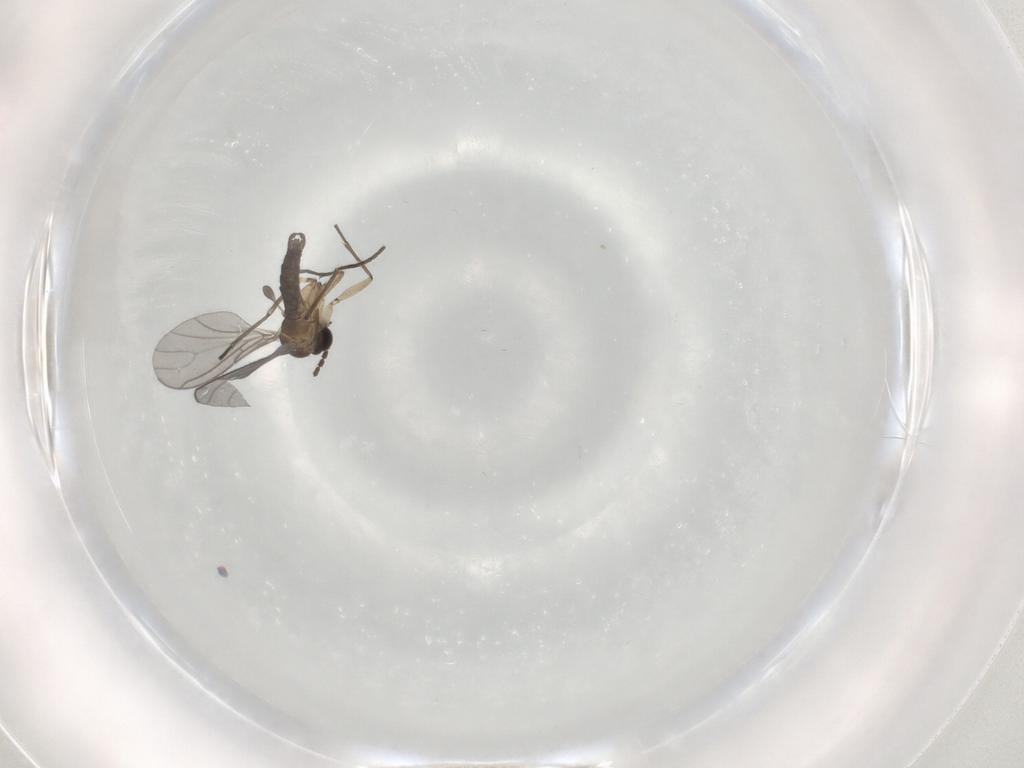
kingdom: Animalia
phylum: Arthropoda
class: Insecta
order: Diptera
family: Sciaridae
